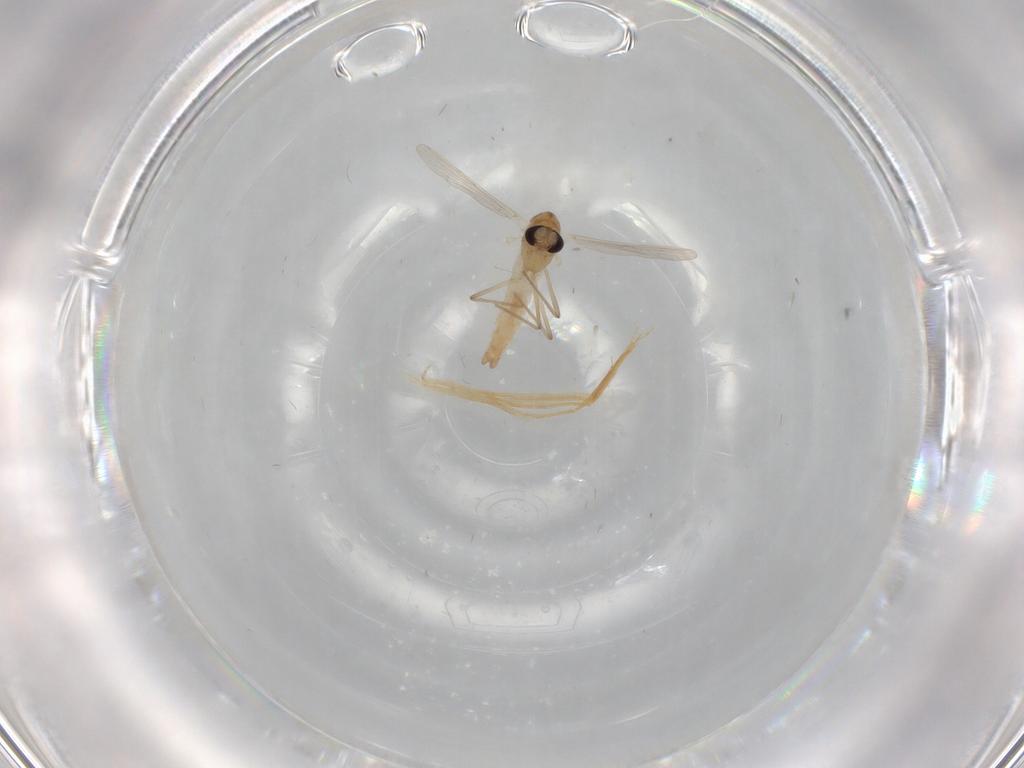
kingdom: Animalia
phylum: Arthropoda
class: Insecta
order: Diptera
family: Chironomidae
